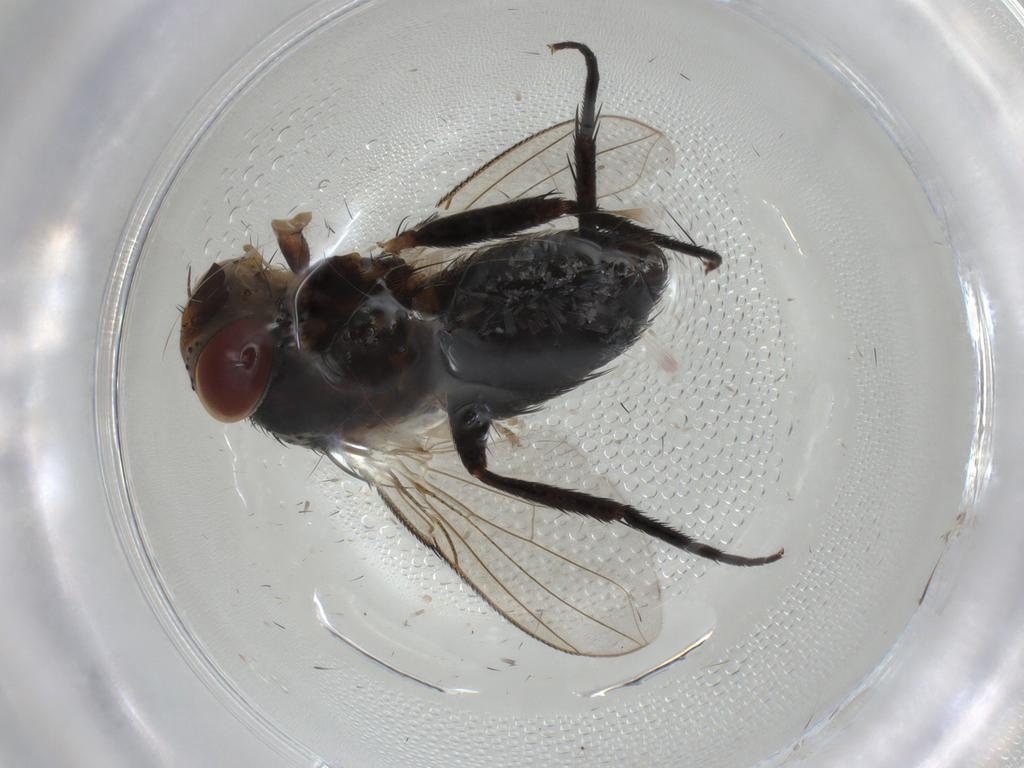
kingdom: Animalia
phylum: Arthropoda
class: Insecta
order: Diptera
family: Tachinidae
